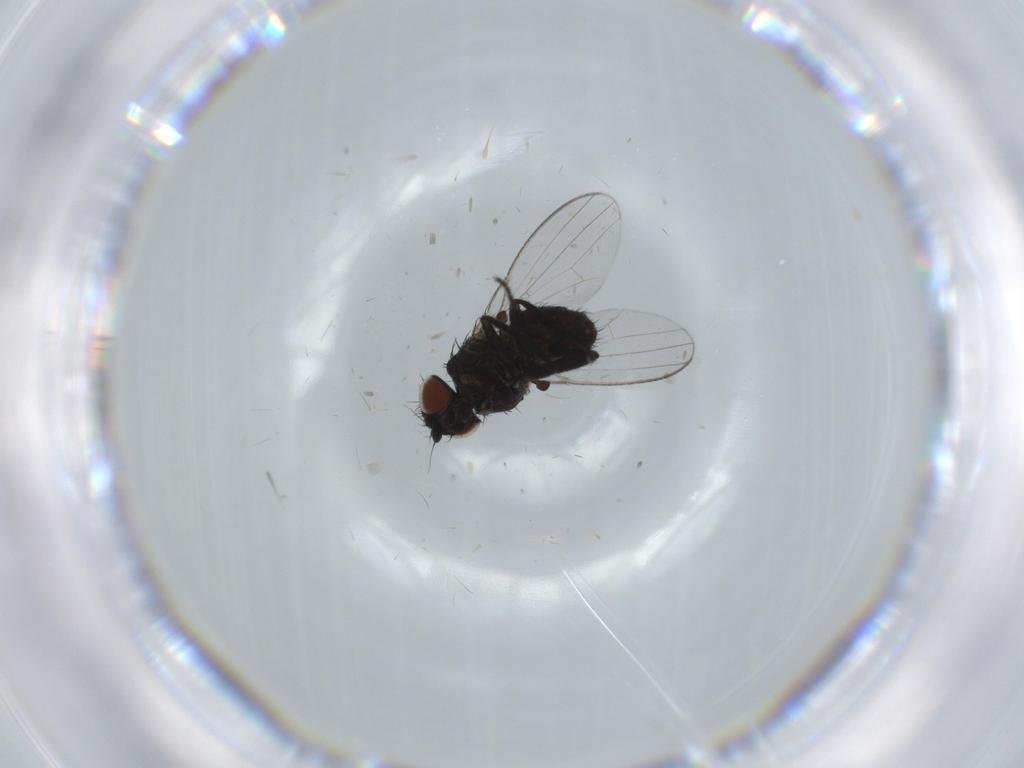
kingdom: Animalia
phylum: Arthropoda
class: Insecta
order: Diptera
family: Milichiidae
